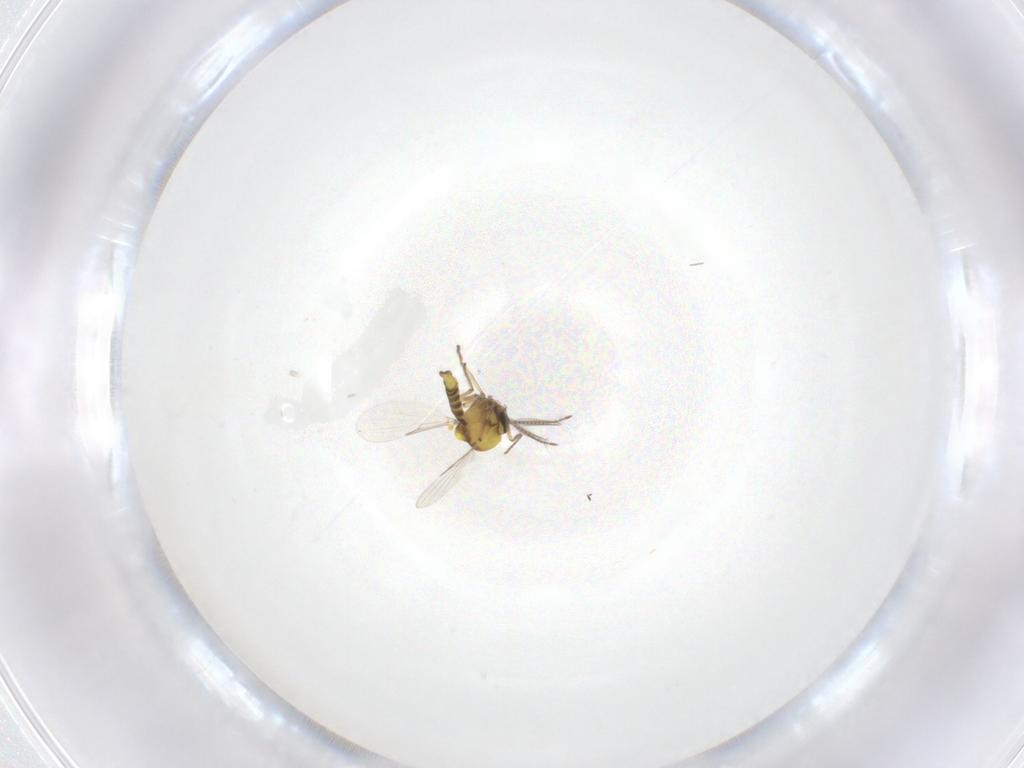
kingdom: Animalia
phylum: Arthropoda
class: Insecta
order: Diptera
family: Ceratopogonidae
